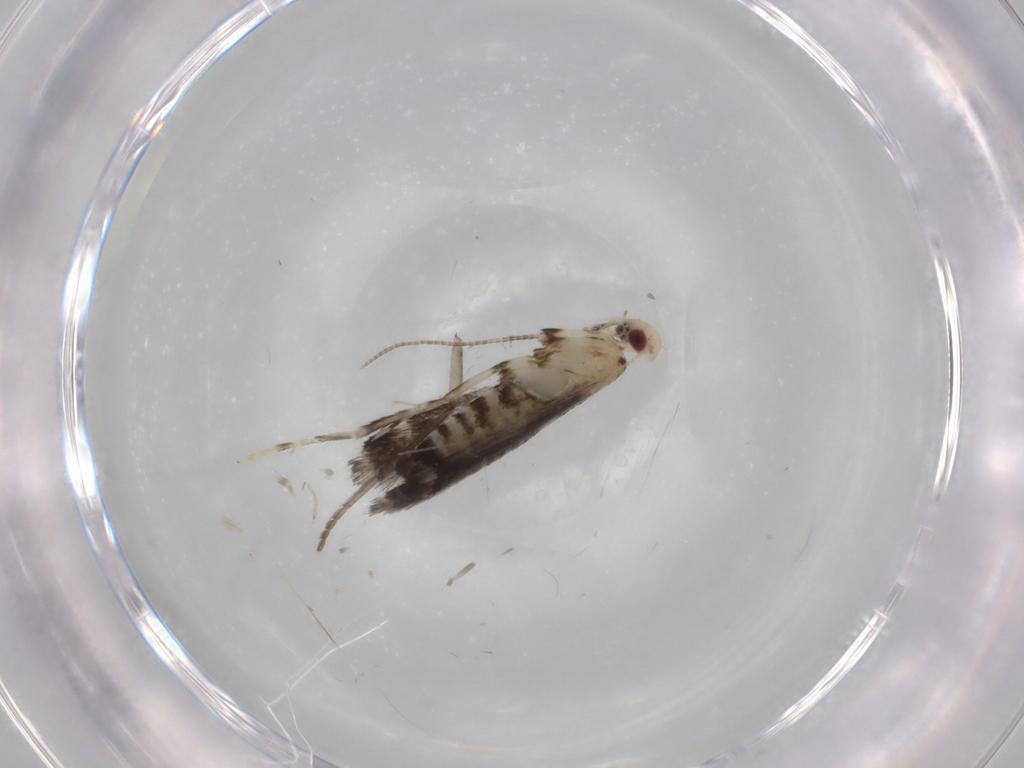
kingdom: Animalia
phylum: Arthropoda
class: Insecta
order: Lepidoptera
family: Gracillariidae
